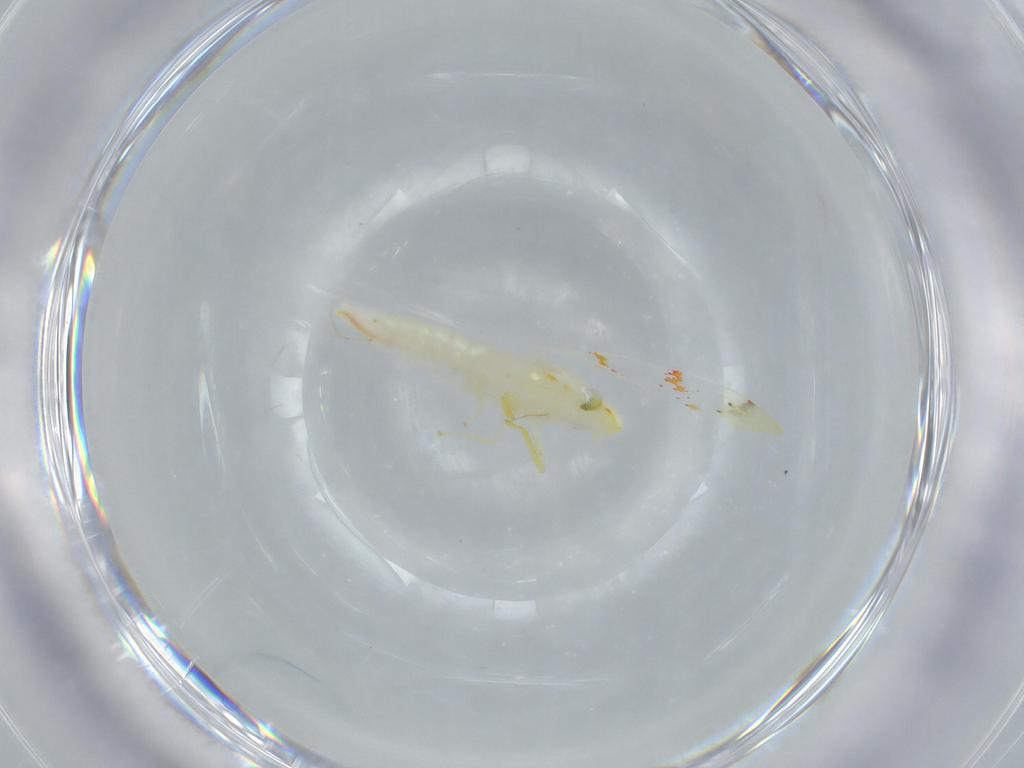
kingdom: Animalia
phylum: Arthropoda
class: Insecta
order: Hemiptera
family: Cicadellidae
